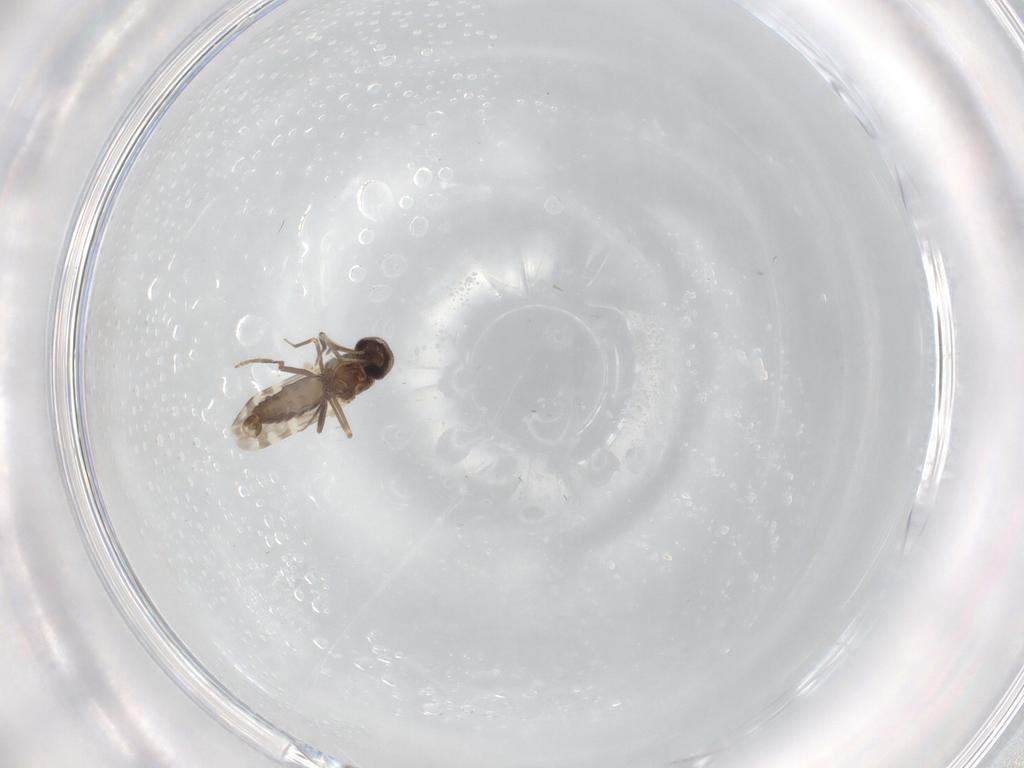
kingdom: Animalia
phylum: Arthropoda
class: Insecta
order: Diptera
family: Ceratopogonidae
